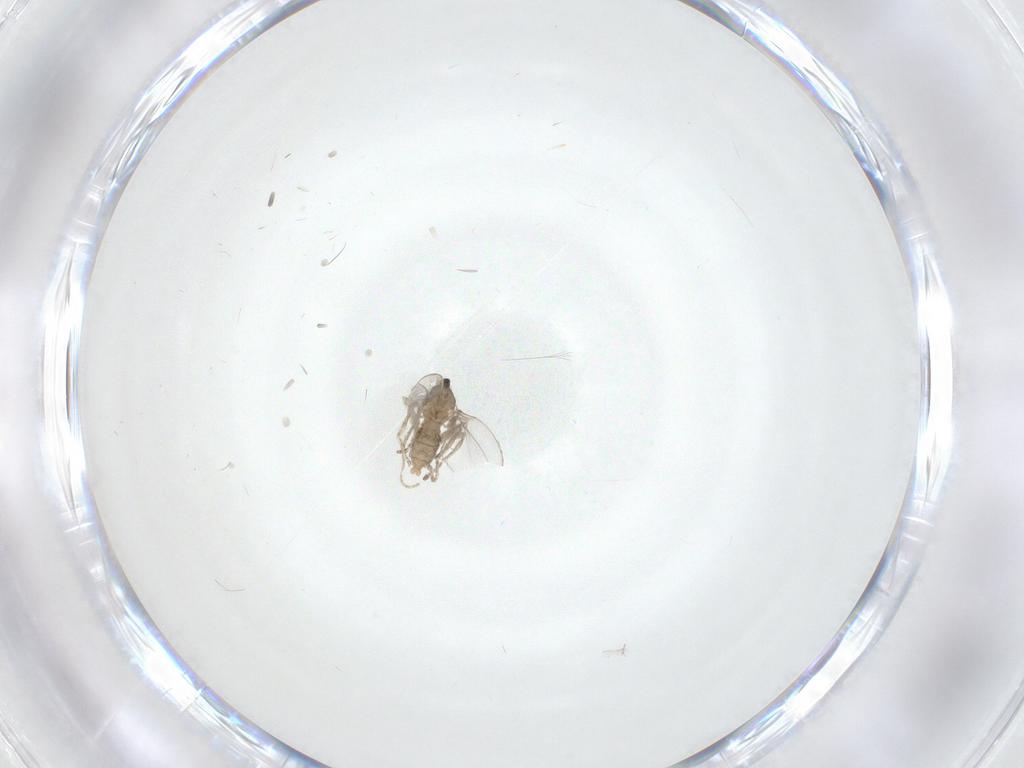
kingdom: Animalia
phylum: Arthropoda
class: Insecta
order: Diptera
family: Cecidomyiidae
